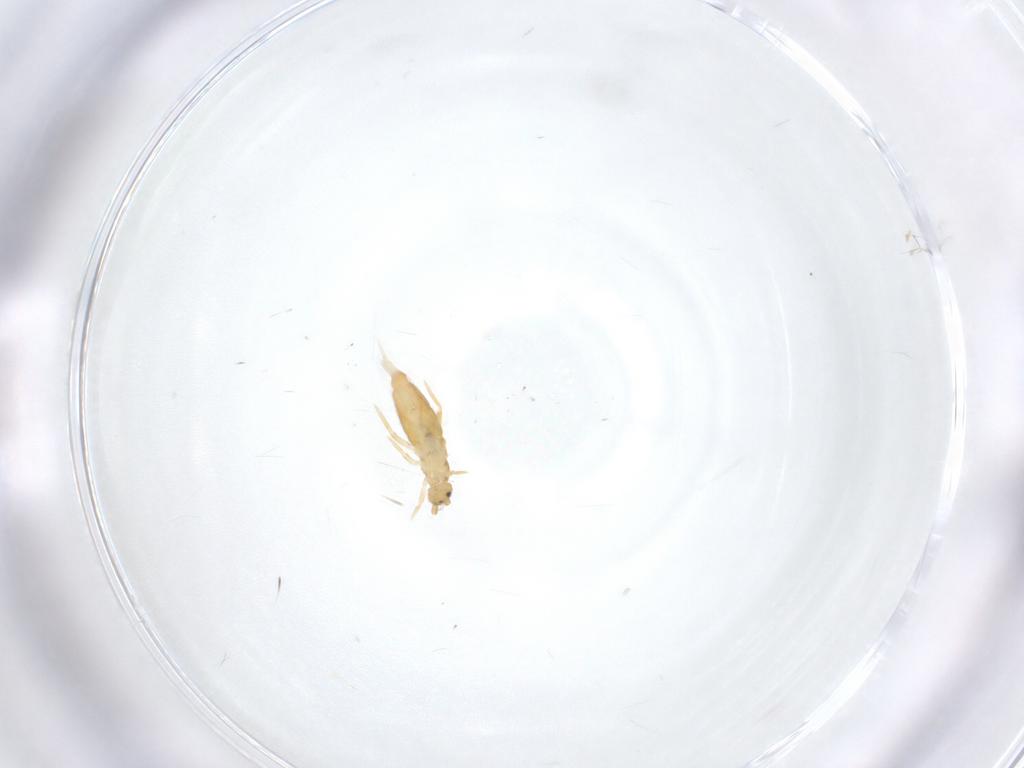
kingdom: Animalia
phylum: Arthropoda
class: Collembola
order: Entomobryomorpha
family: Entomobryidae
